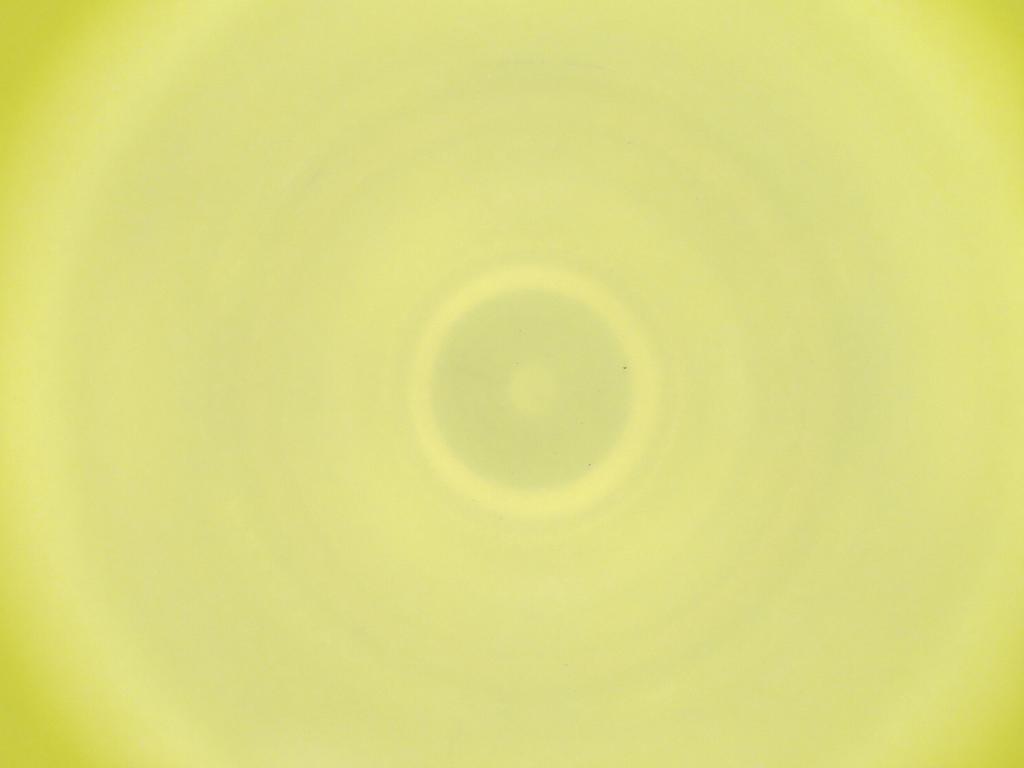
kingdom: Animalia
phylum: Arthropoda
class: Insecta
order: Diptera
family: Cecidomyiidae
